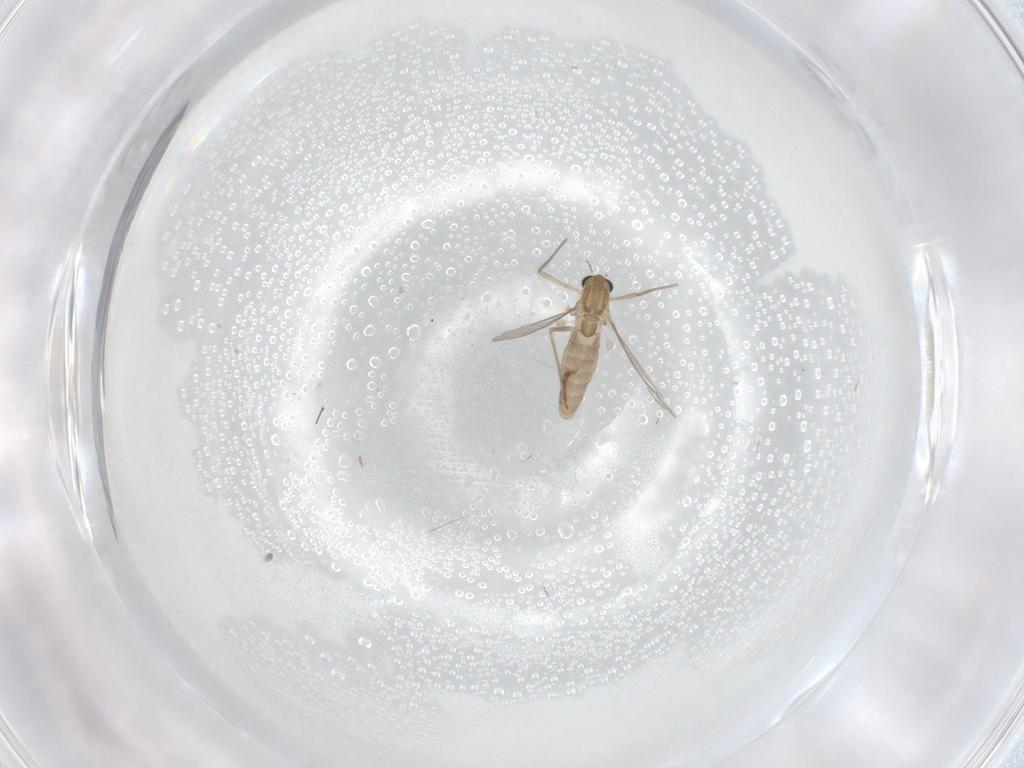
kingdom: Animalia
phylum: Arthropoda
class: Insecta
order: Diptera
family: Chironomidae
